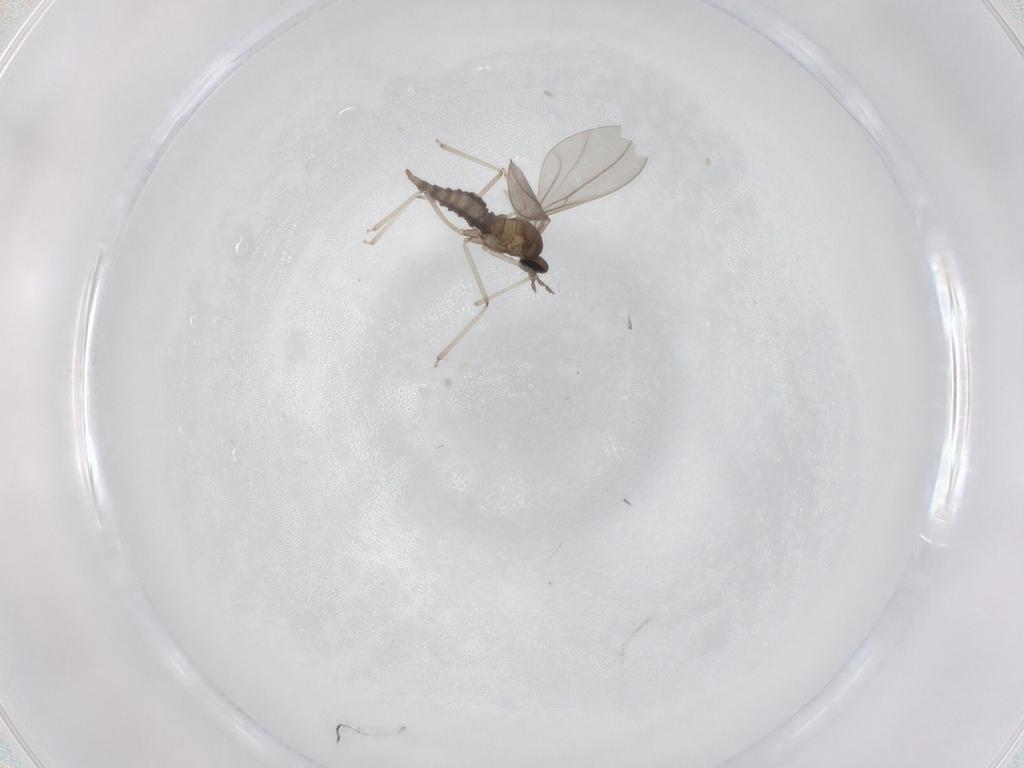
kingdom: Animalia
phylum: Arthropoda
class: Insecta
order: Diptera
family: Cecidomyiidae
